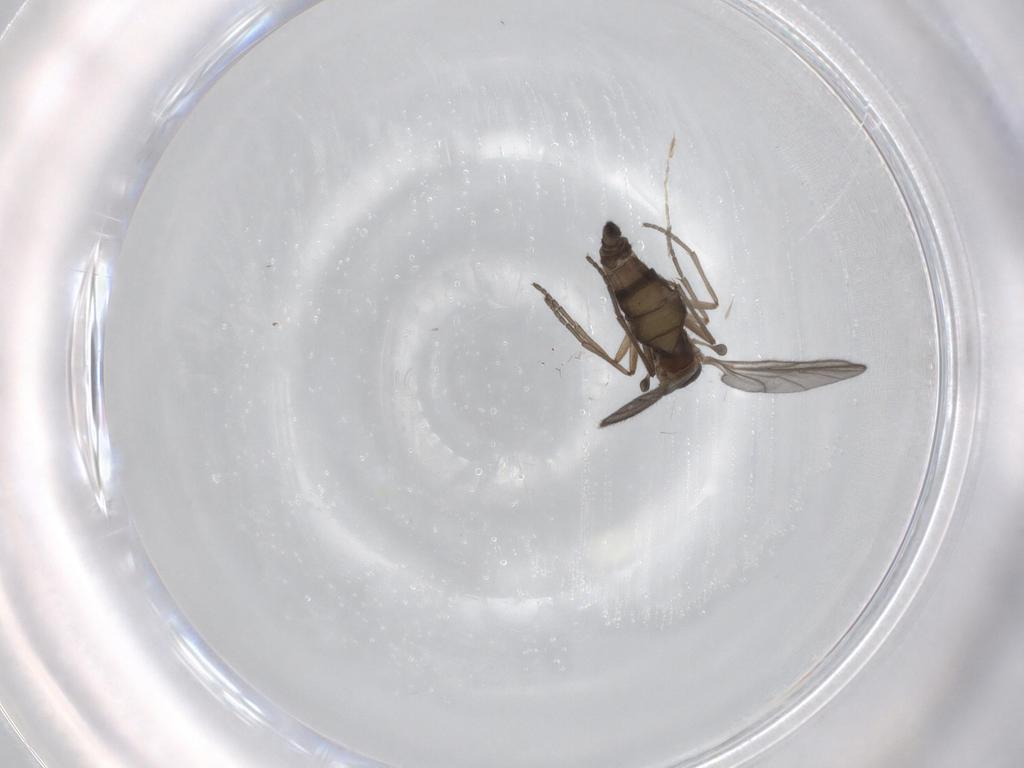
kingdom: Animalia
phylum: Arthropoda
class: Insecta
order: Diptera
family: Sciaridae
